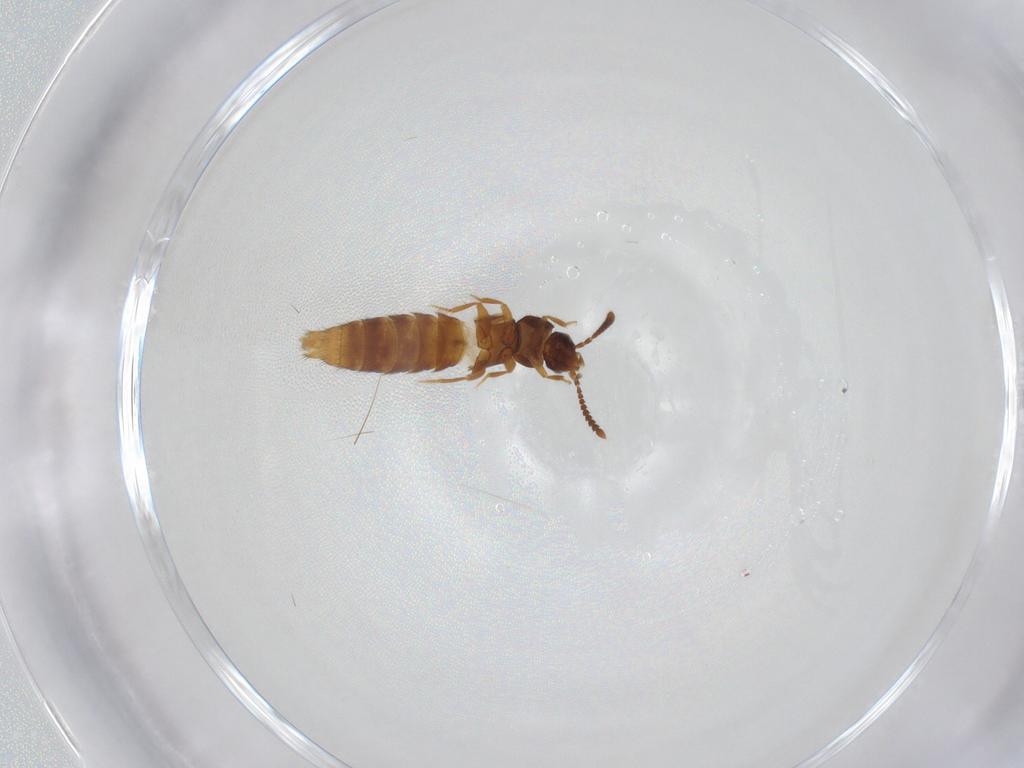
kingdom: Animalia
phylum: Arthropoda
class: Insecta
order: Coleoptera
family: Staphylinidae
